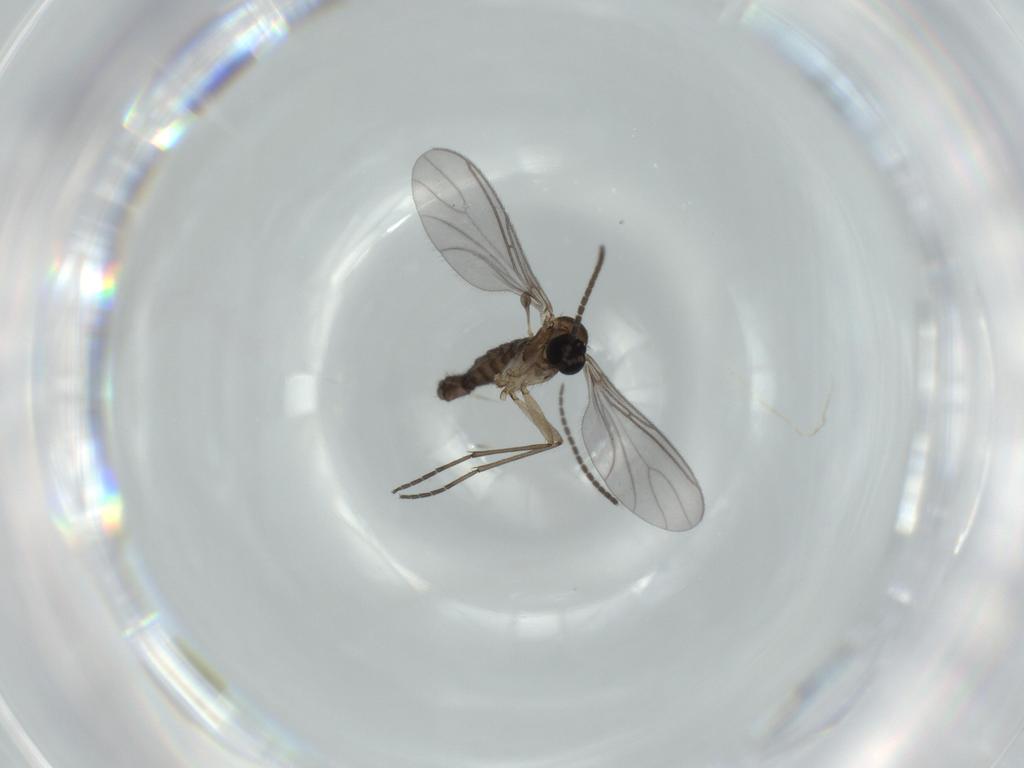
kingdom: Animalia
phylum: Arthropoda
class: Insecta
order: Diptera
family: Sciaridae
